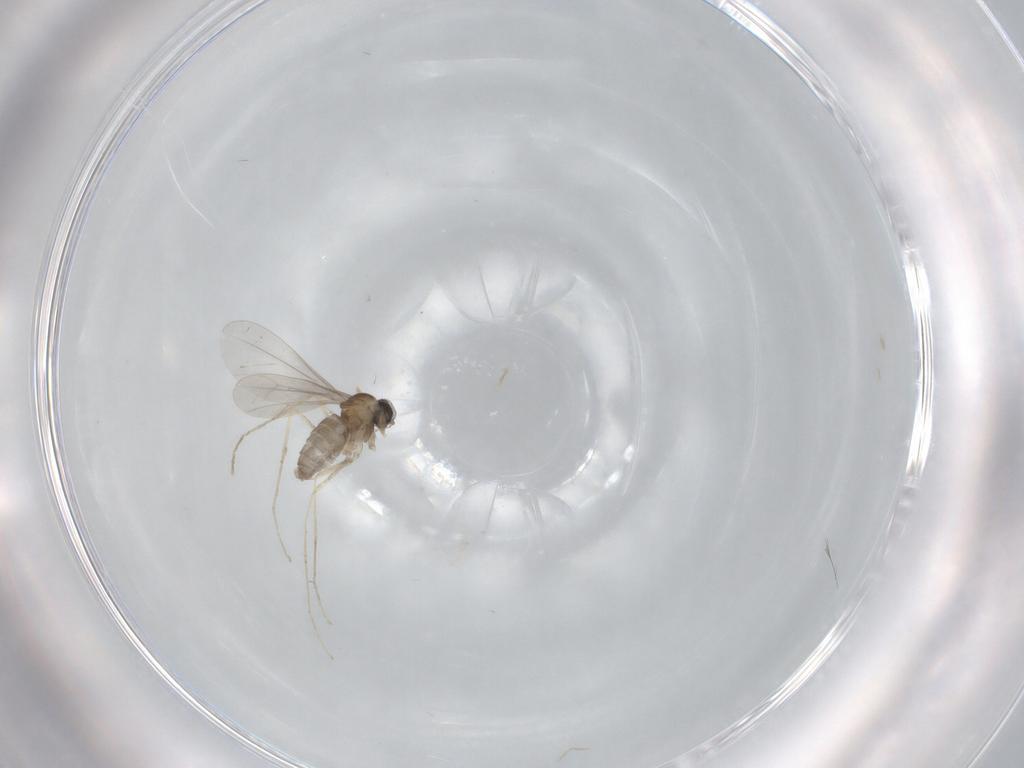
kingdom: Animalia
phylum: Arthropoda
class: Insecta
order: Diptera
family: Cecidomyiidae
